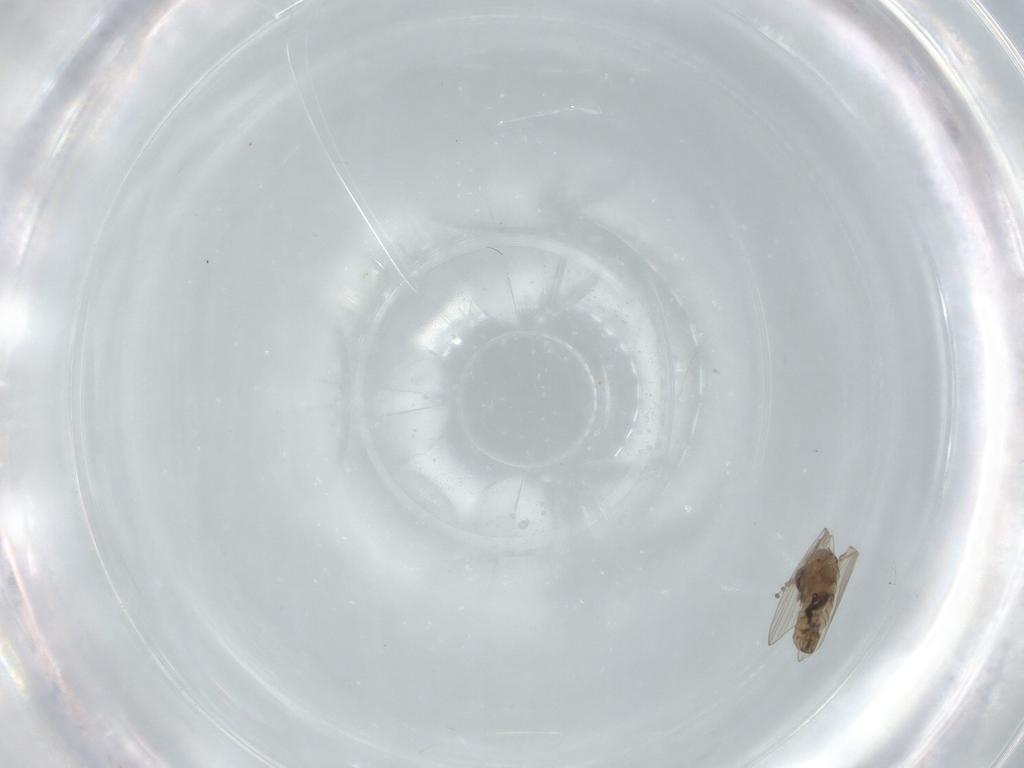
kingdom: Animalia
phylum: Arthropoda
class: Insecta
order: Diptera
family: Psychodidae
